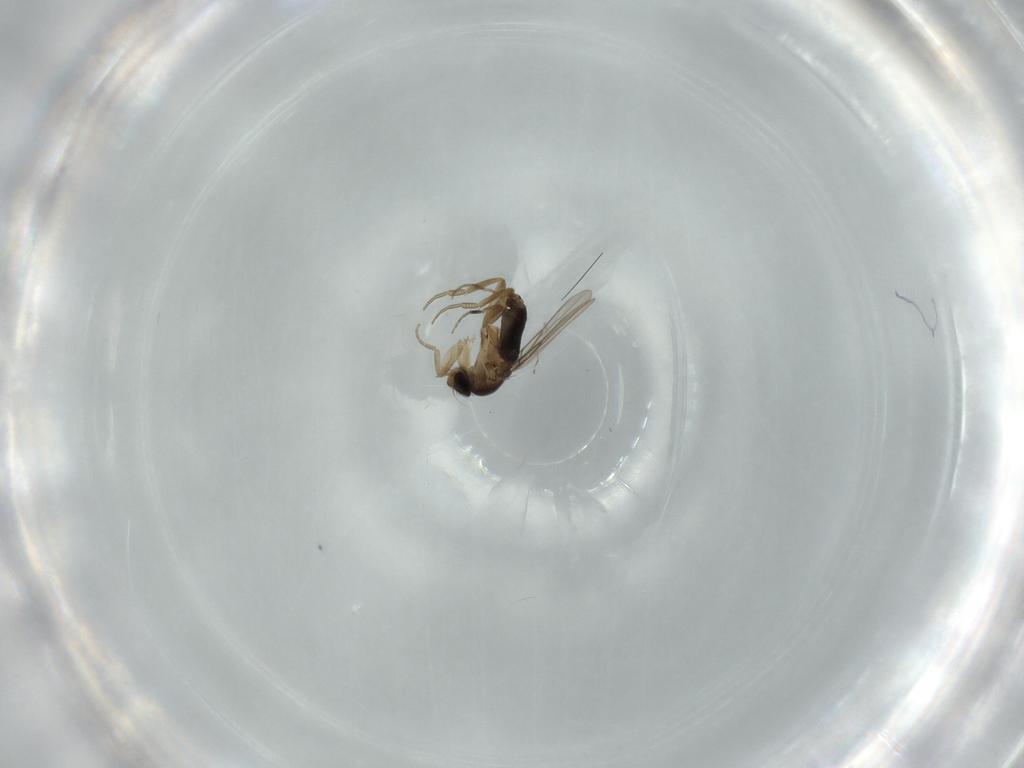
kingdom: Animalia
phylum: Arthropoda
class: Insecta
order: Diptera
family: Phoridae
